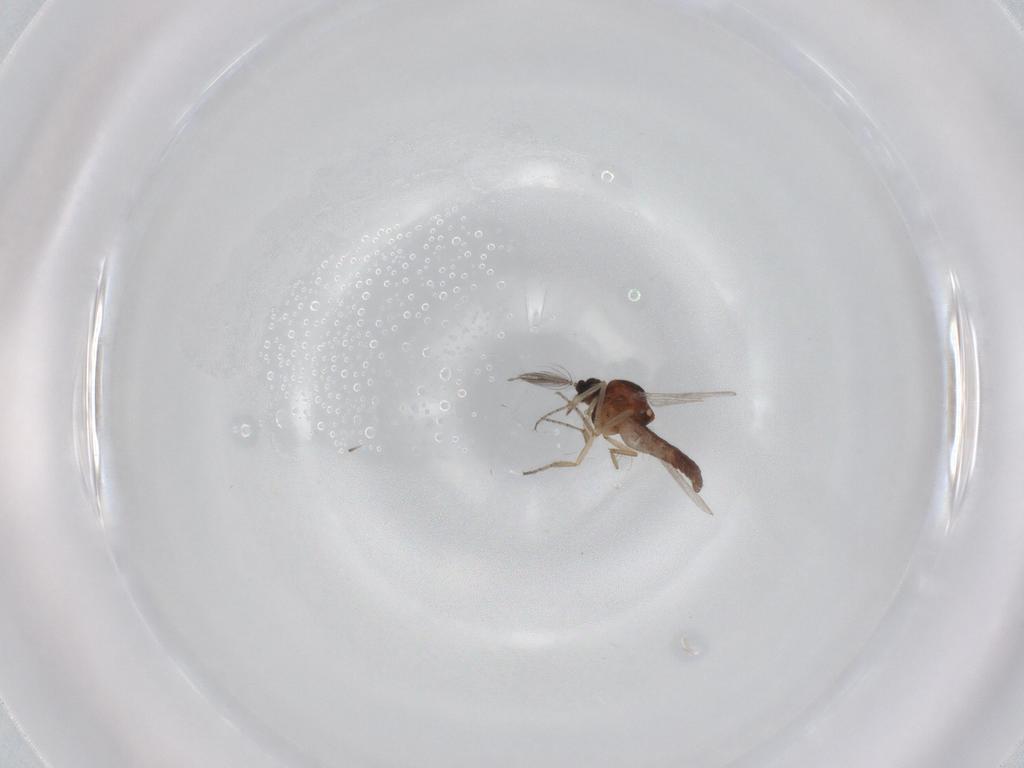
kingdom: Animalia
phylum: Arthropoda
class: Insecta
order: Diptera
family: Ceratopogonidae
